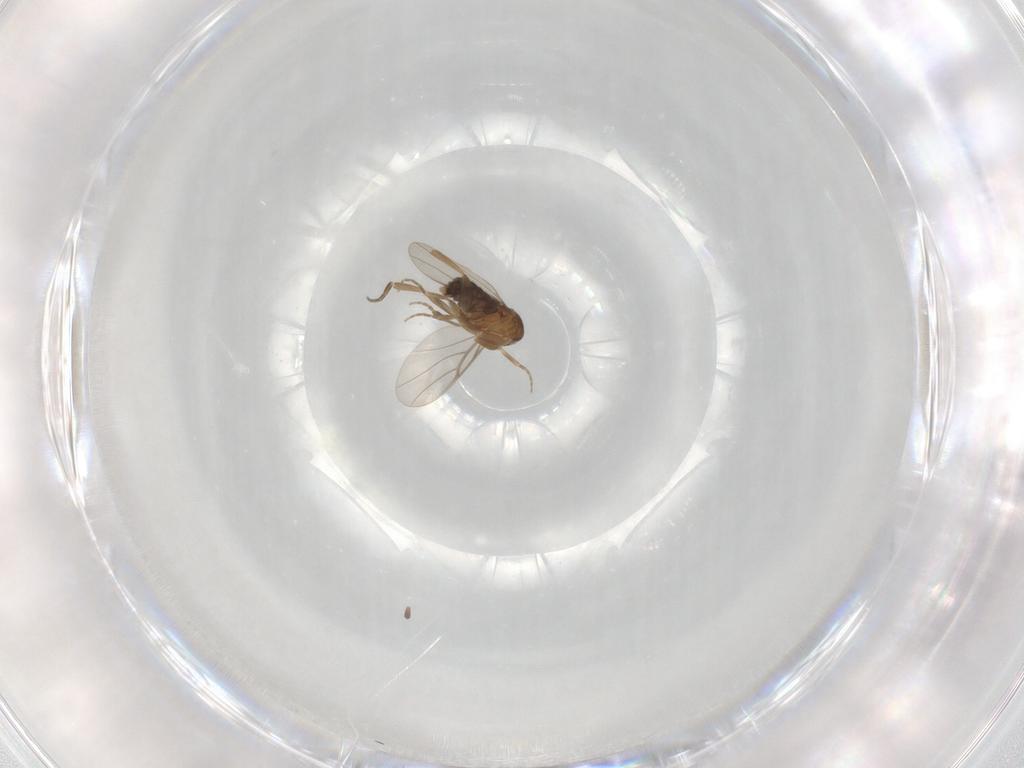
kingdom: Animalia
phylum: Arthropoda
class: Insecta
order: Diptera
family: Phoridae
